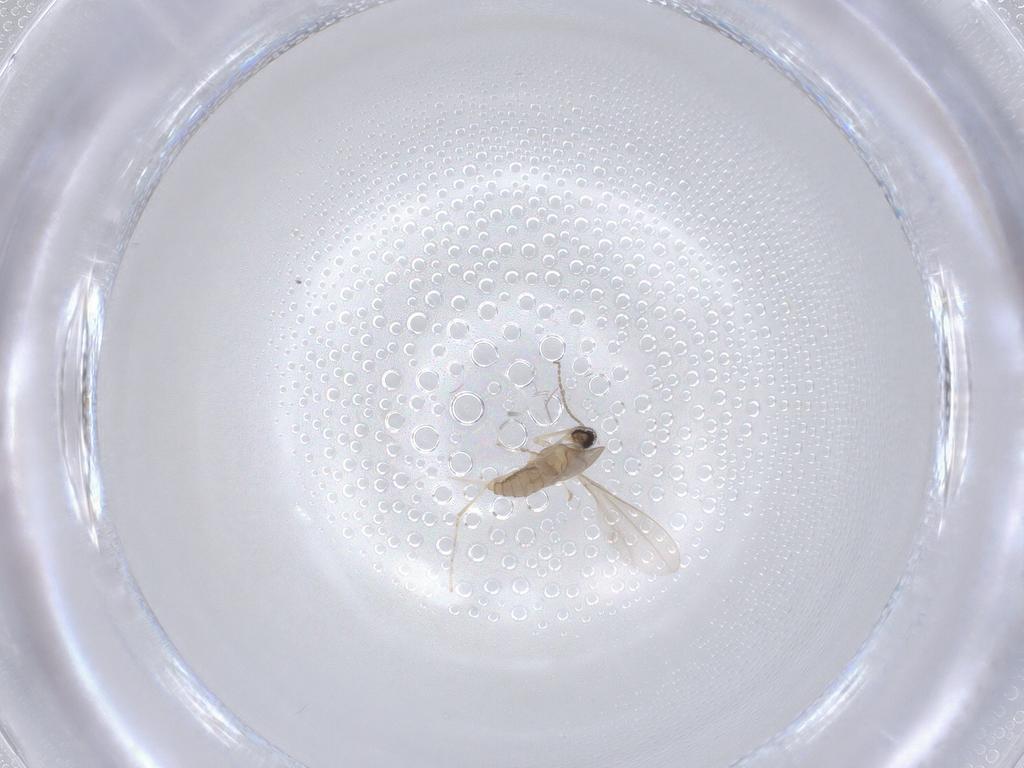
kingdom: Animalia
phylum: Arthropoda
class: Insecta
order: Diptera
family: Cecidomyiidae
